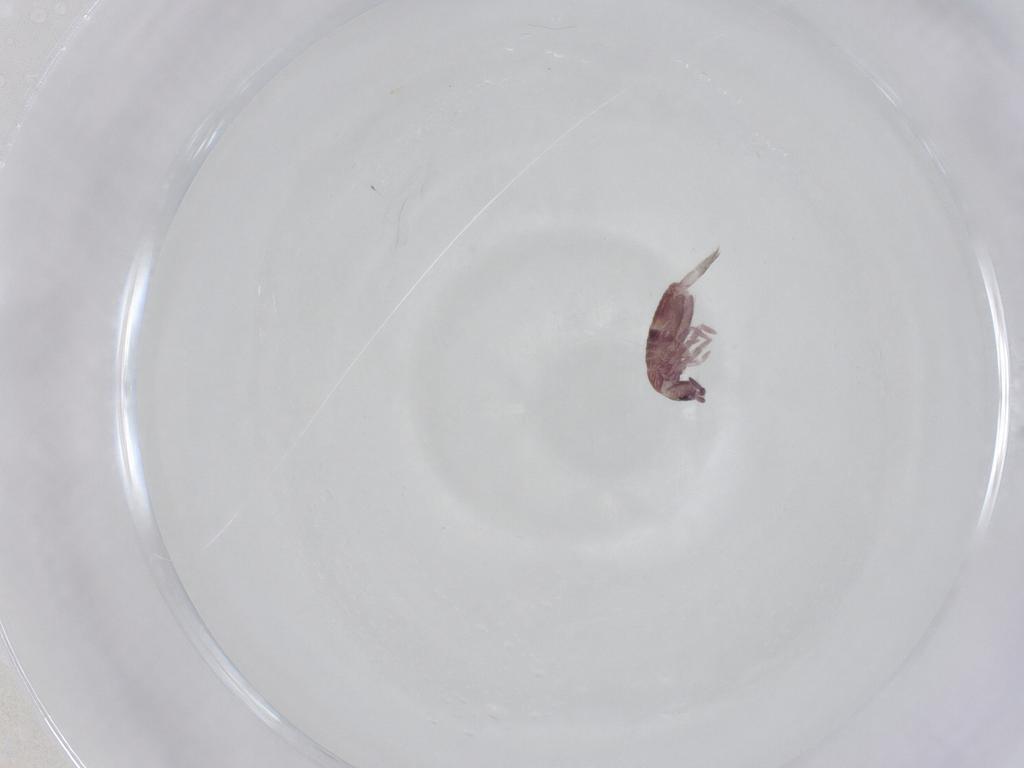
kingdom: Animalia
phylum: Arthropoda
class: Collembola
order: Entomobryomorpha
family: Entomobryidae
